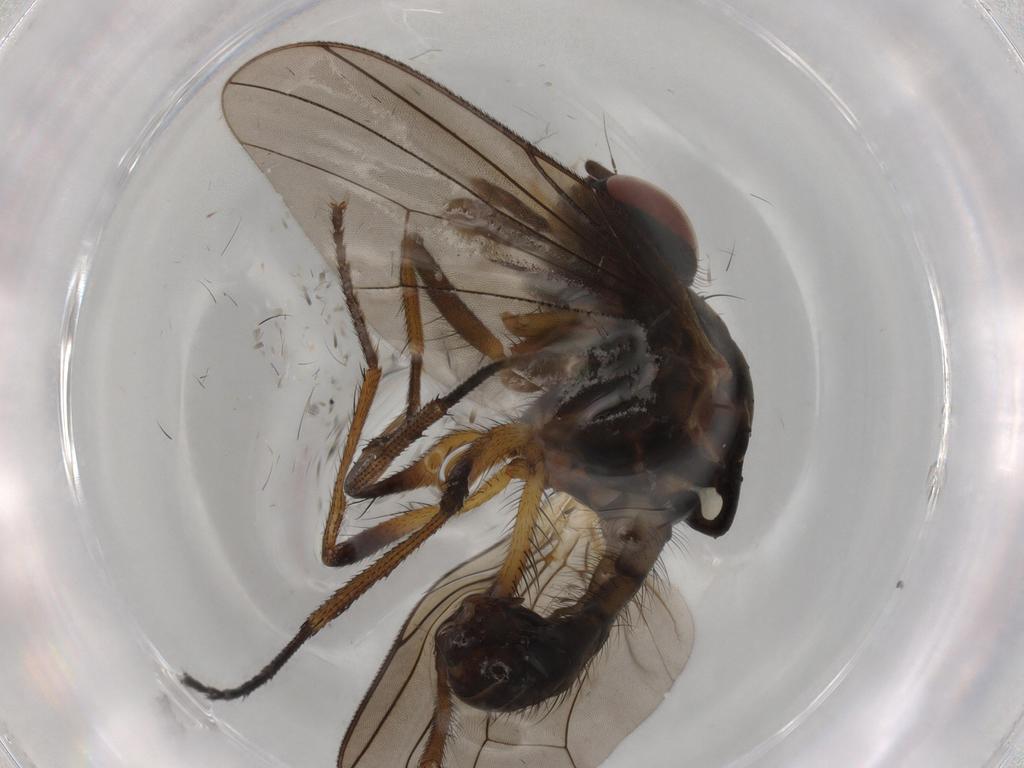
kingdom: Animalia
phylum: Arthropoda
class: Insecta
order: Diptera
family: Anthomyiidae
